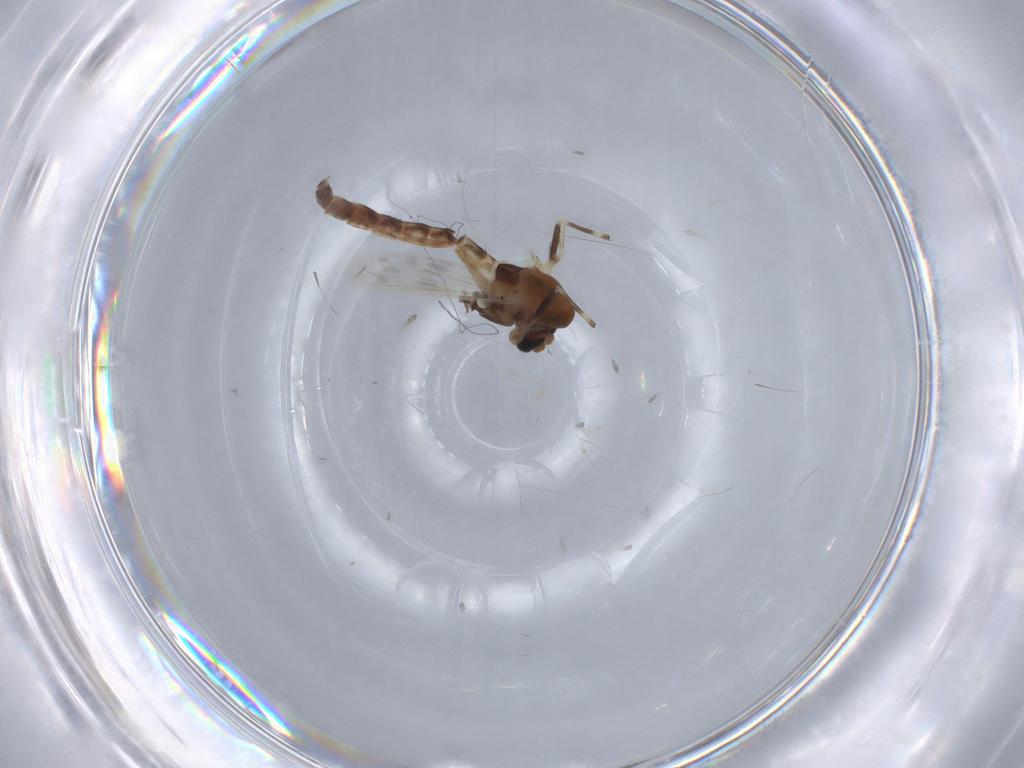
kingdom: Animalia
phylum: Arthropoda
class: Insecta
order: Diptera
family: Chironomidae
